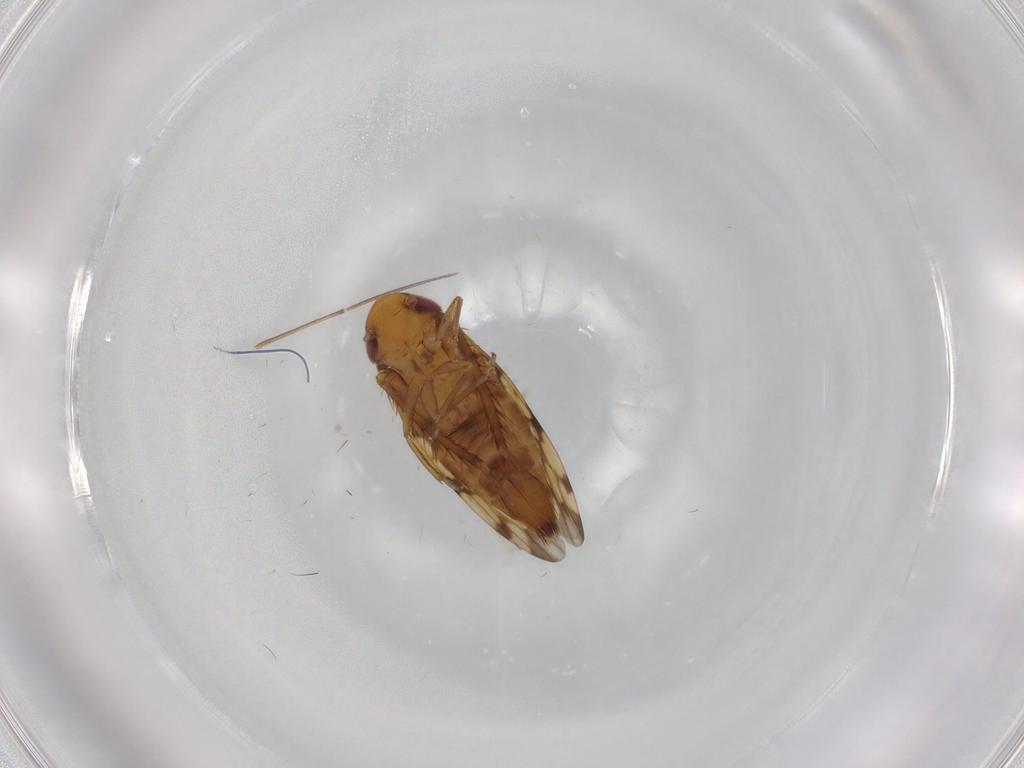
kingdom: Animalia
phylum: Arthropoda
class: Insecta
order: Hemiptera
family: Cicadellidae
